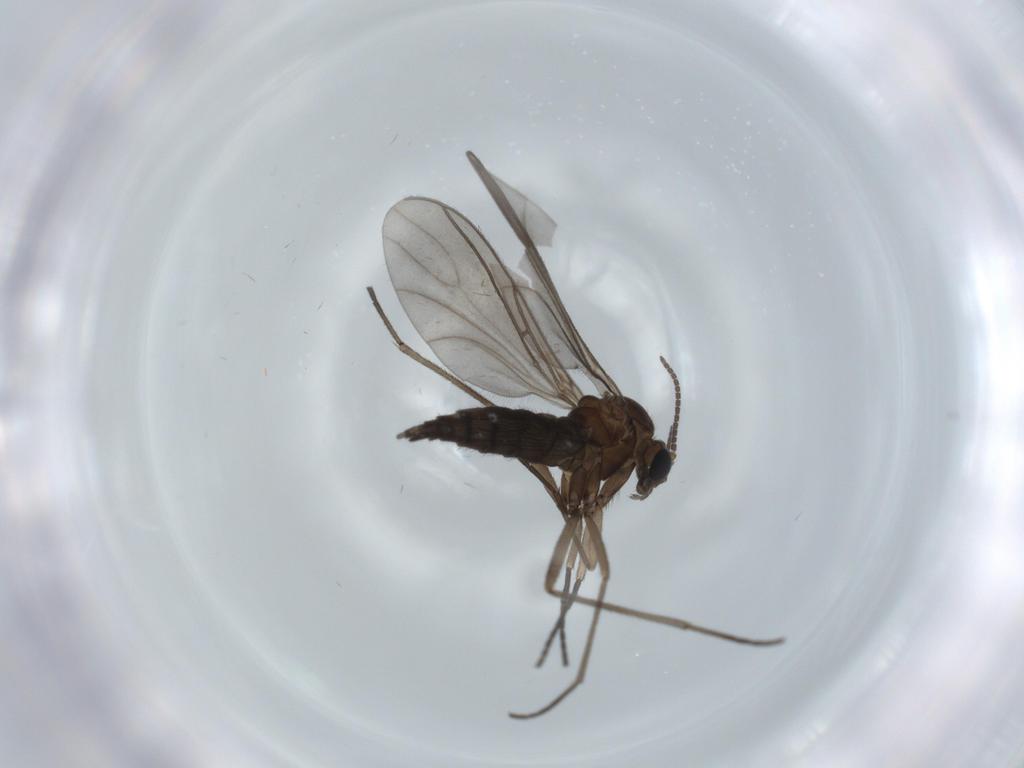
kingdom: Animalia
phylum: Arthropoda
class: Insecta
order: Diptera
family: Sciaridae
